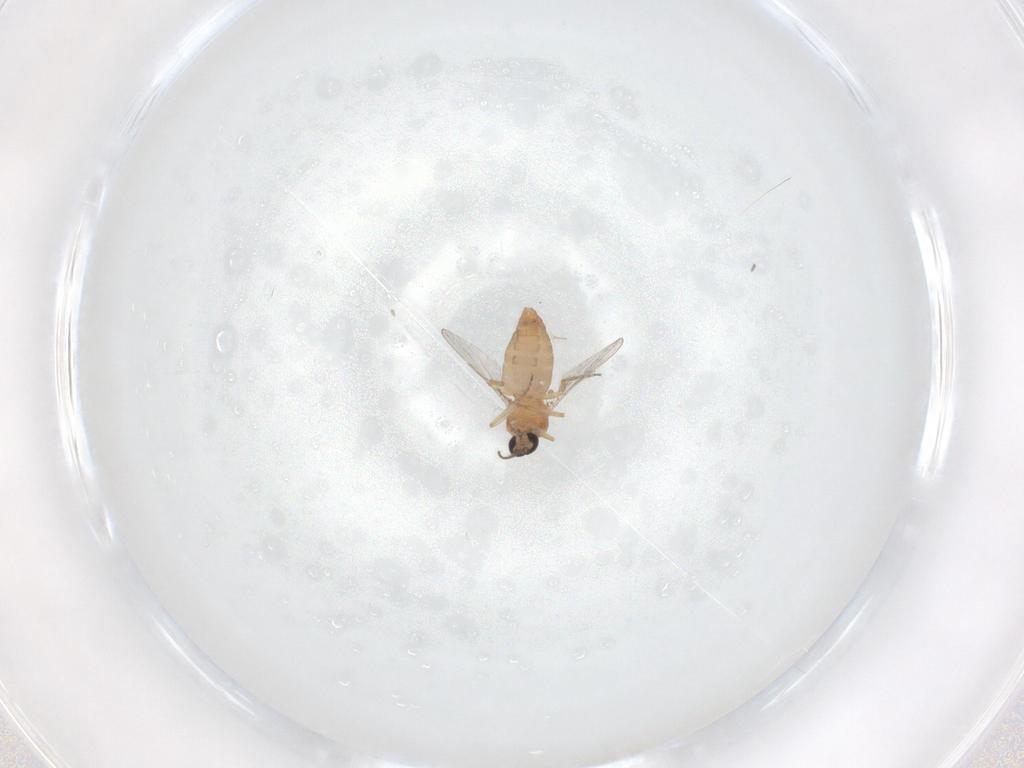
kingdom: Animalia
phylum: Arthropoda
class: Insecta
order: Diptera
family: Ceratopogonidae
